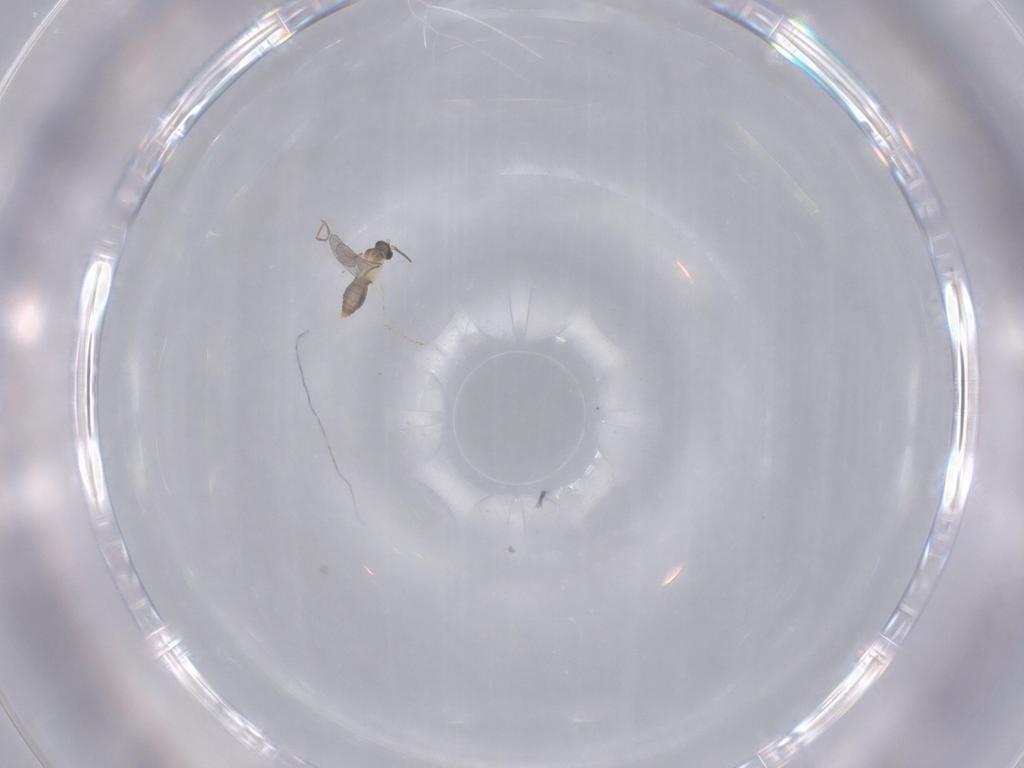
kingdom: Animalia
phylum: Arthropoda
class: Insecta
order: Diptera
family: Cecidomyiidae
